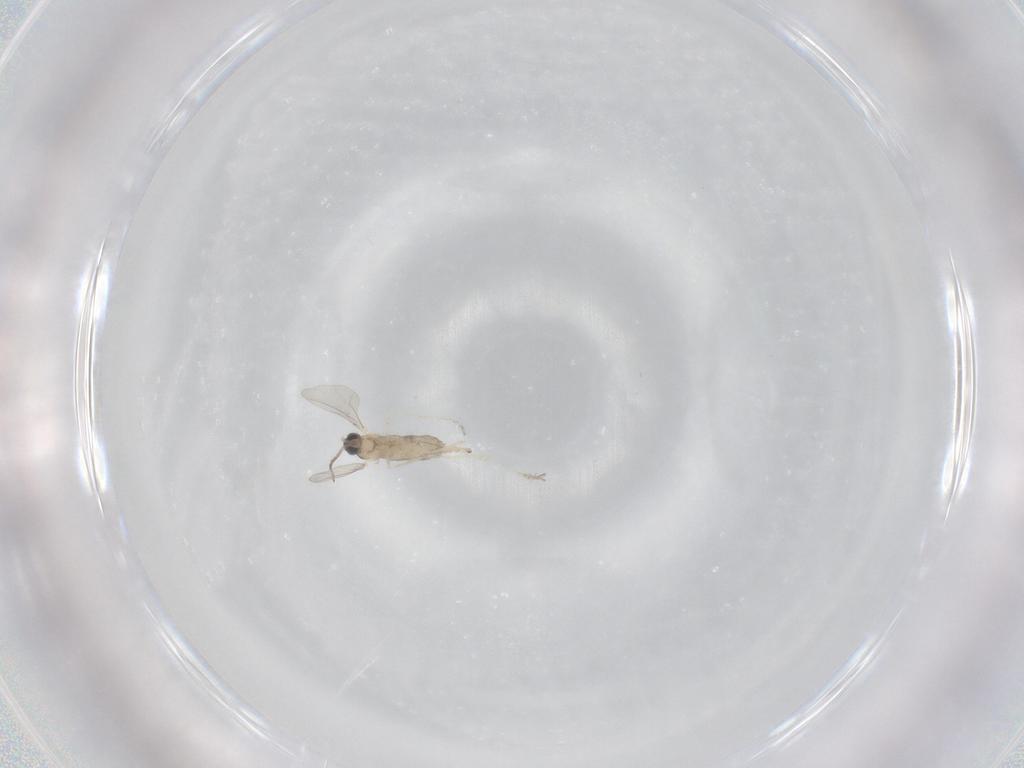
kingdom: Animalia
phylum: Arthropoda
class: Insecta
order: Diptera
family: Cecidomyiidae
